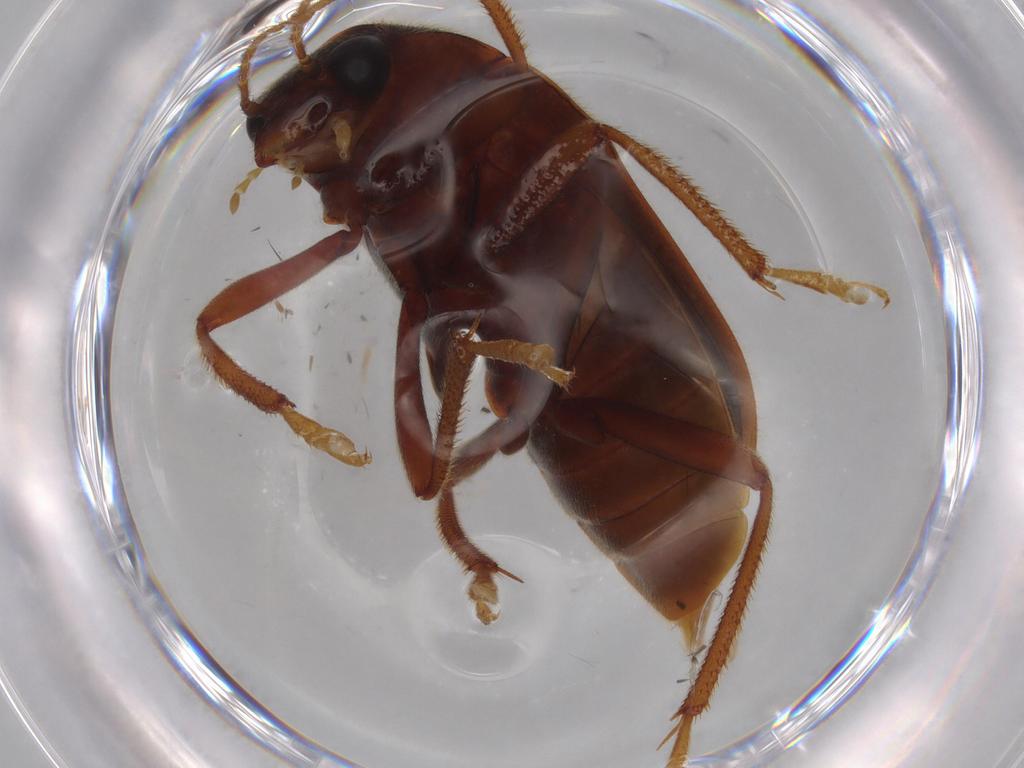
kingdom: Animalia
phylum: Arthropoda
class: Insecta
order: Coleoptera
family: Ptilodactylidae
